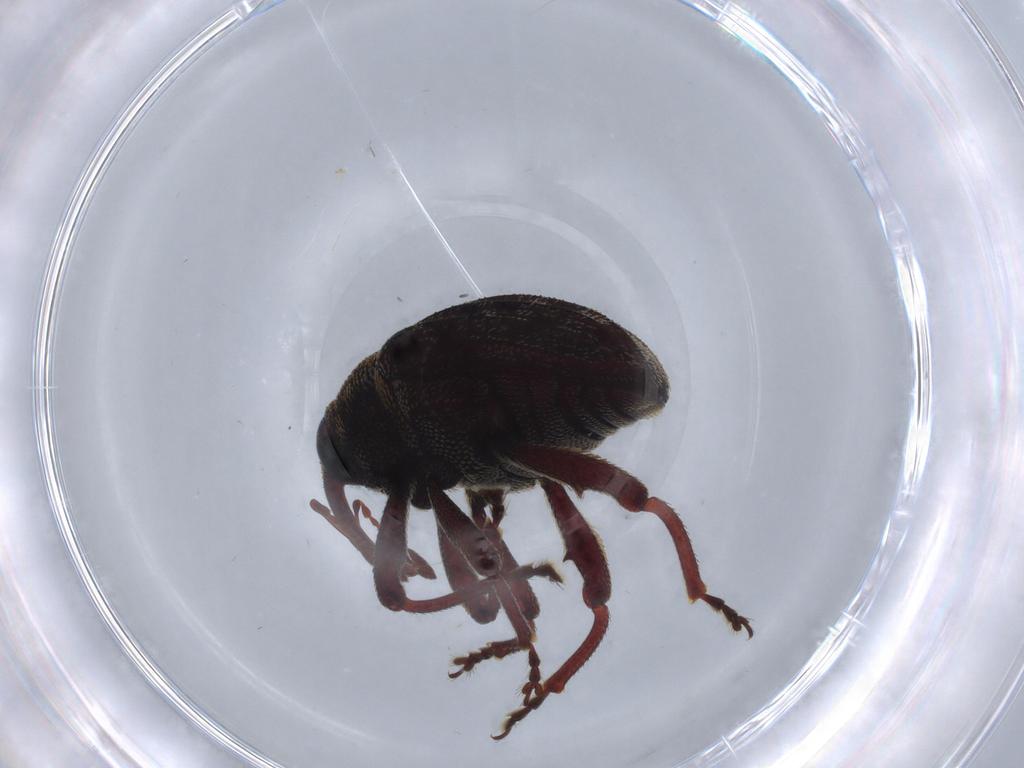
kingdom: Animalia
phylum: Arthropoda
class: Insecta
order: Coleoptera
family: Curculionidae
